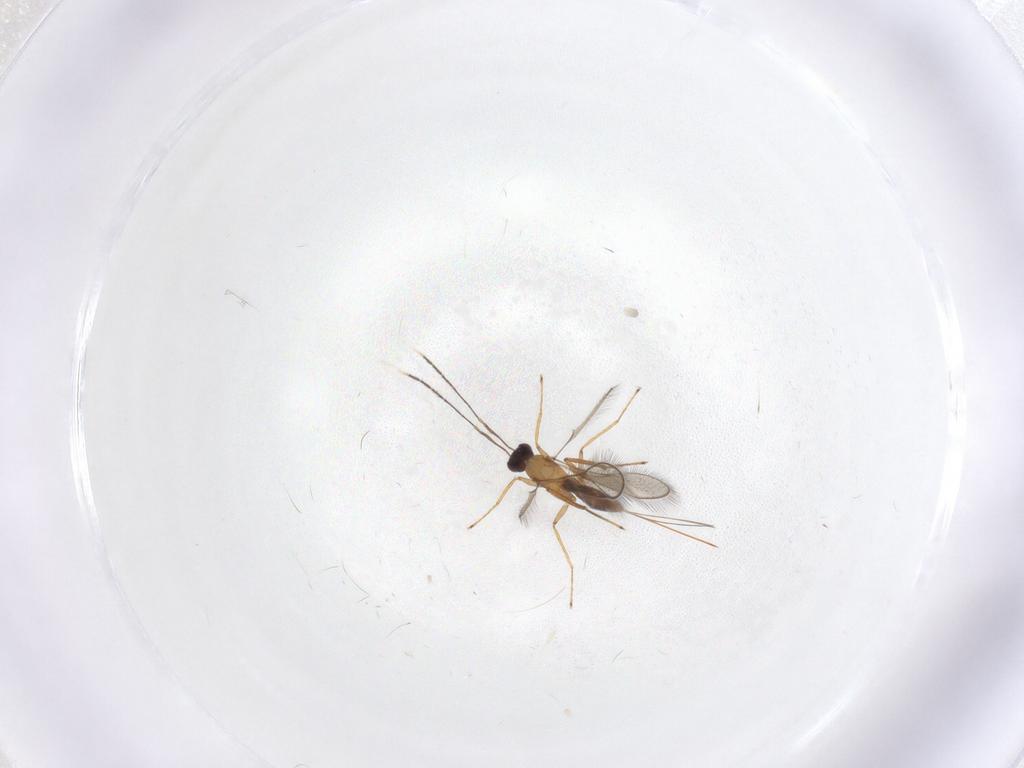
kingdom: Animalia
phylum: Arthropoda
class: Insecta
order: Hymenoptera
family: Mymaridae
